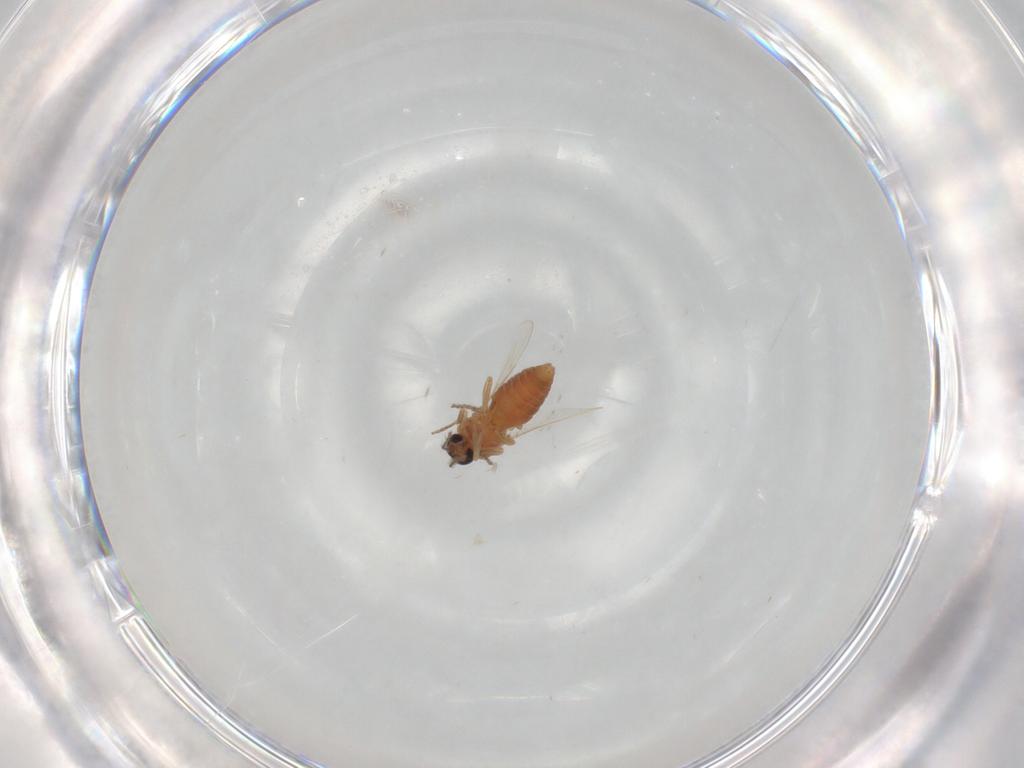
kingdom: Animalia
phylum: Arthropoda
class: Insecta
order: Diptera
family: Ceratopogonidae
